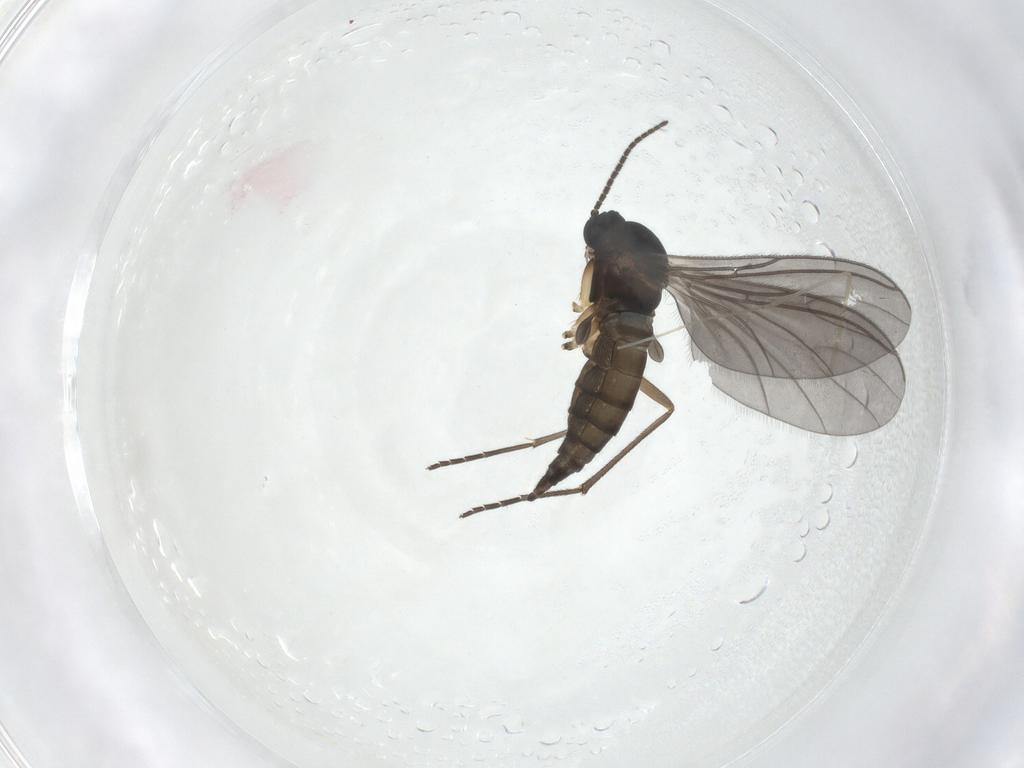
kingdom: Animalia
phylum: Arthropoda
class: Insecta
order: Diptera
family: Sciaridae
